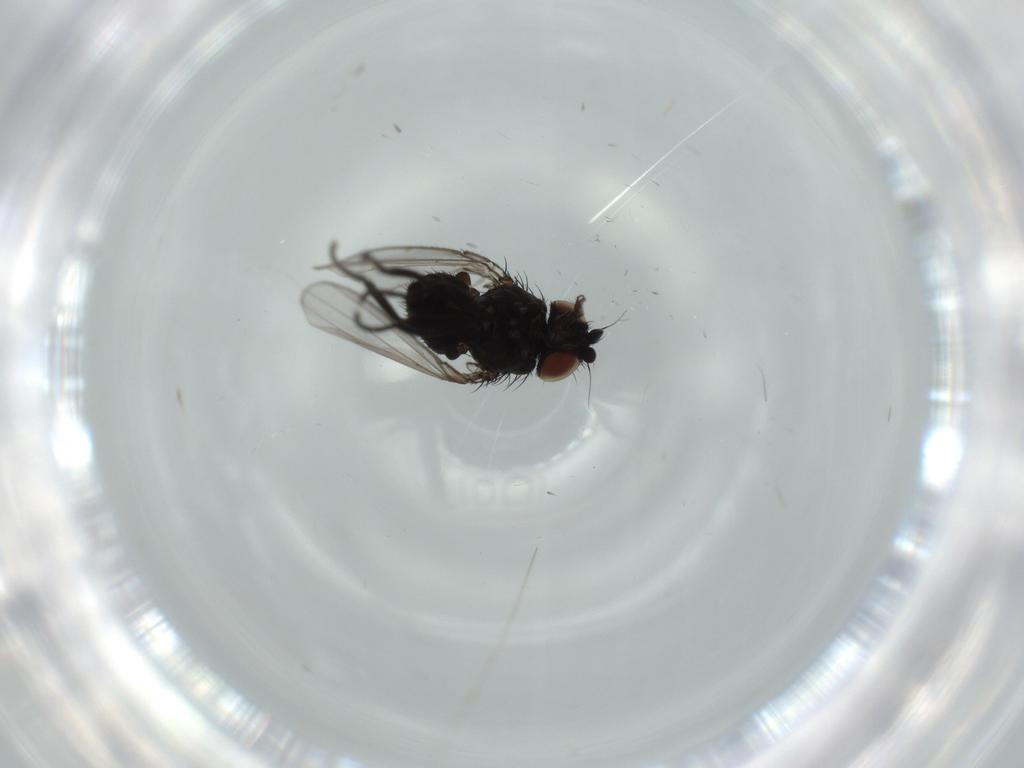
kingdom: Animalia
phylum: Arthropoda
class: Insecta
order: Diptera
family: Milichiidae
